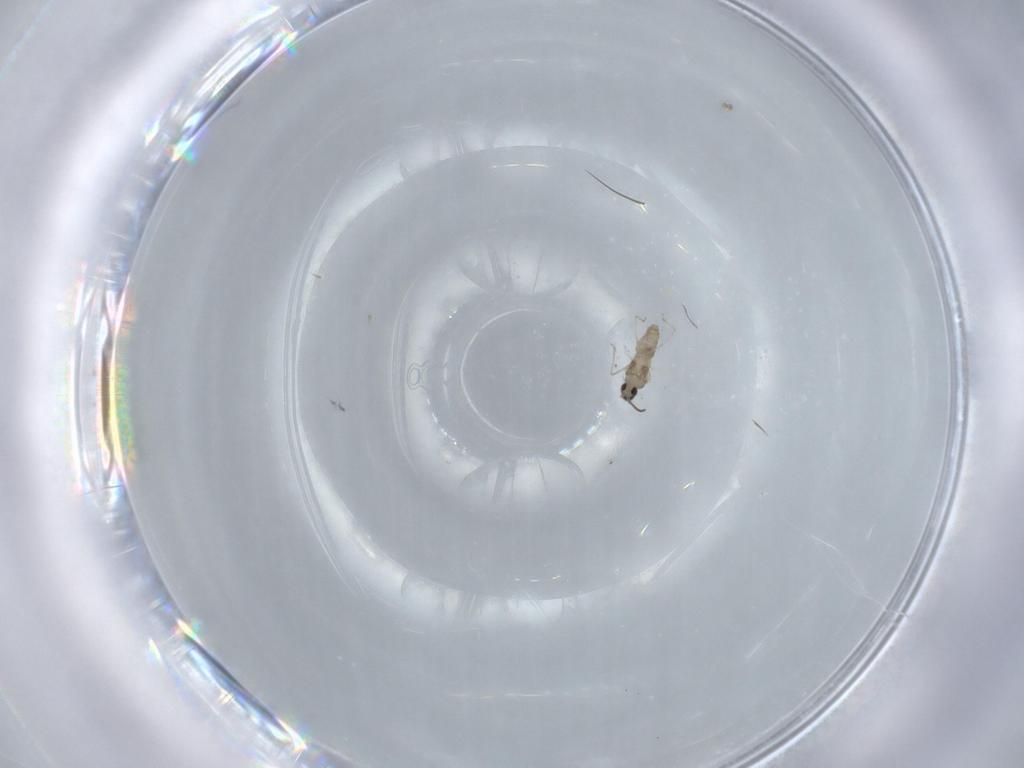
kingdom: Animalia
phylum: Arthropoda
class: Insecta
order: Diptera
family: Cecidomyiidae
